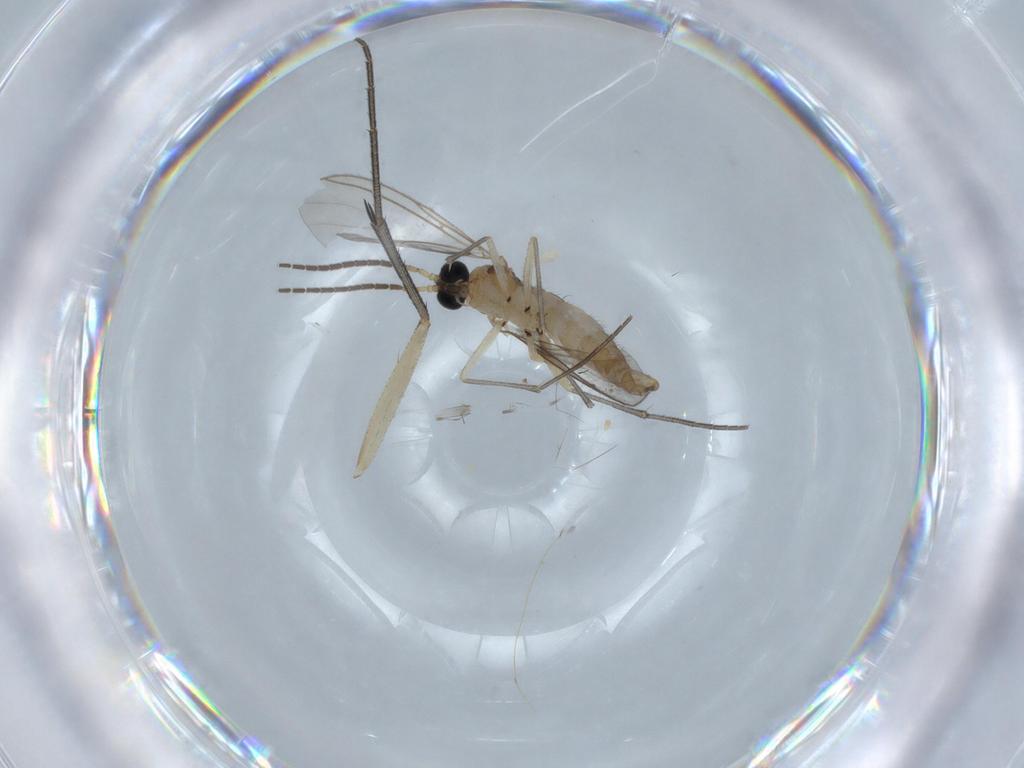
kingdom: Animalia
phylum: Arthropoda
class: Insecta
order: Diptera
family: Mycetophilidae
